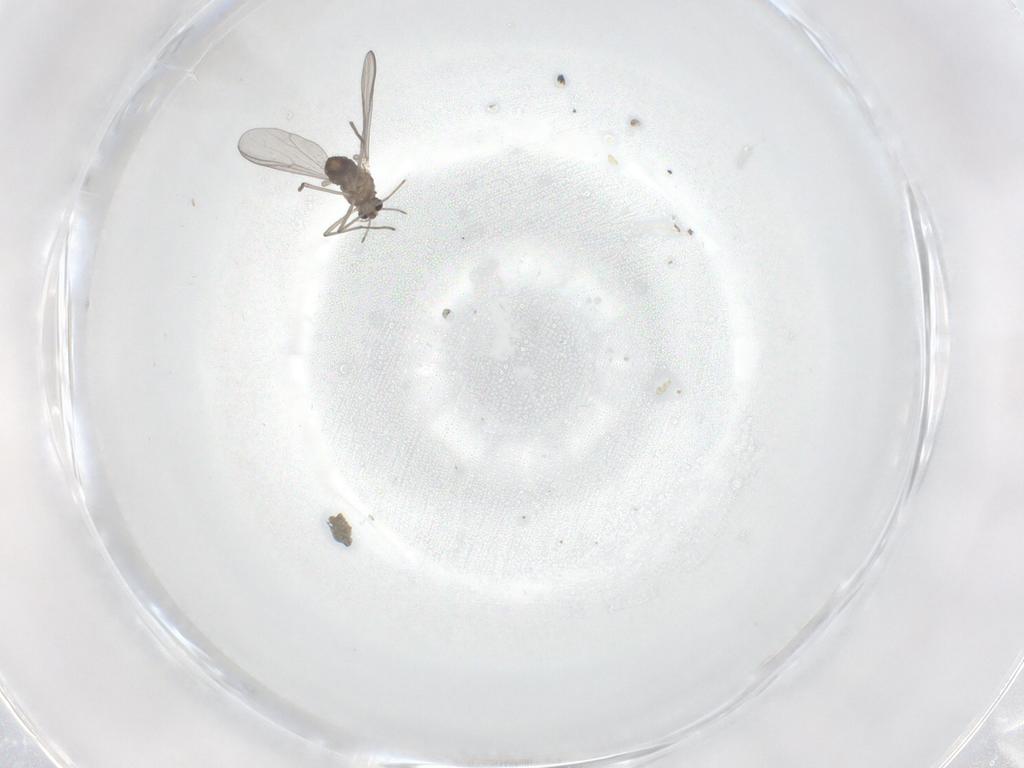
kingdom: Animalia
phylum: Arthropoda
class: Insecta
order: Diptera
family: Chironomidae
